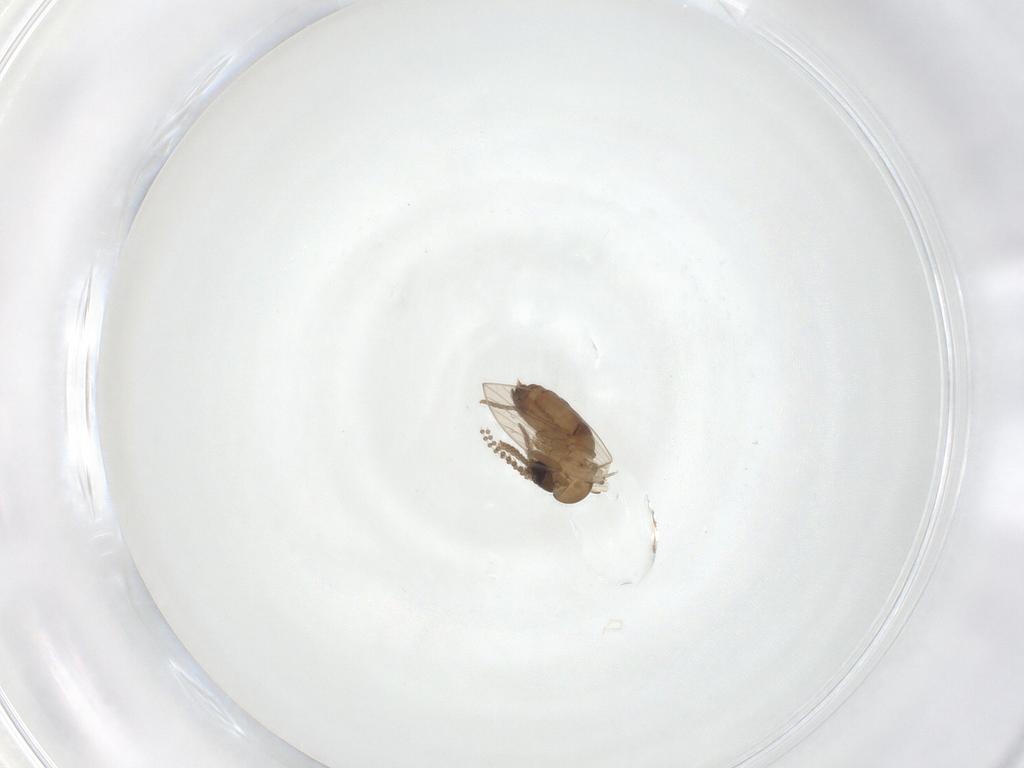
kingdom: Animalia
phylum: Arthropoda
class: Insecta
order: Diptera
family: Psychodidae
